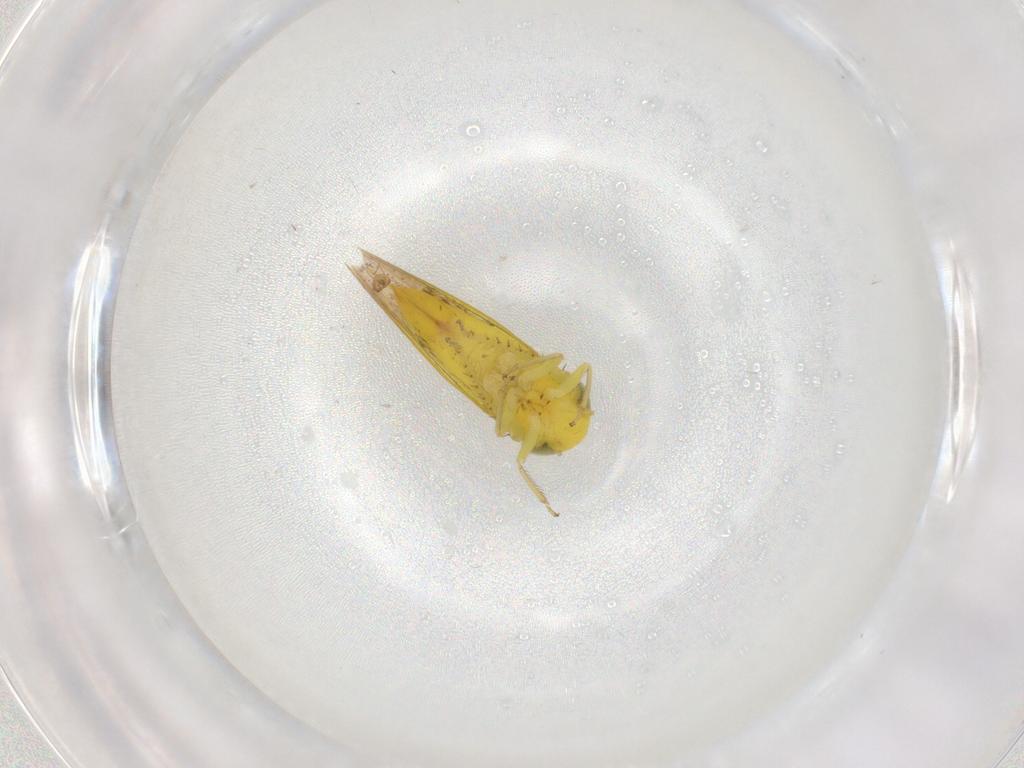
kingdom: Animalia
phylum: Arthropoda
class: Insecta
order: Hemiptera
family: Cicadellidae
